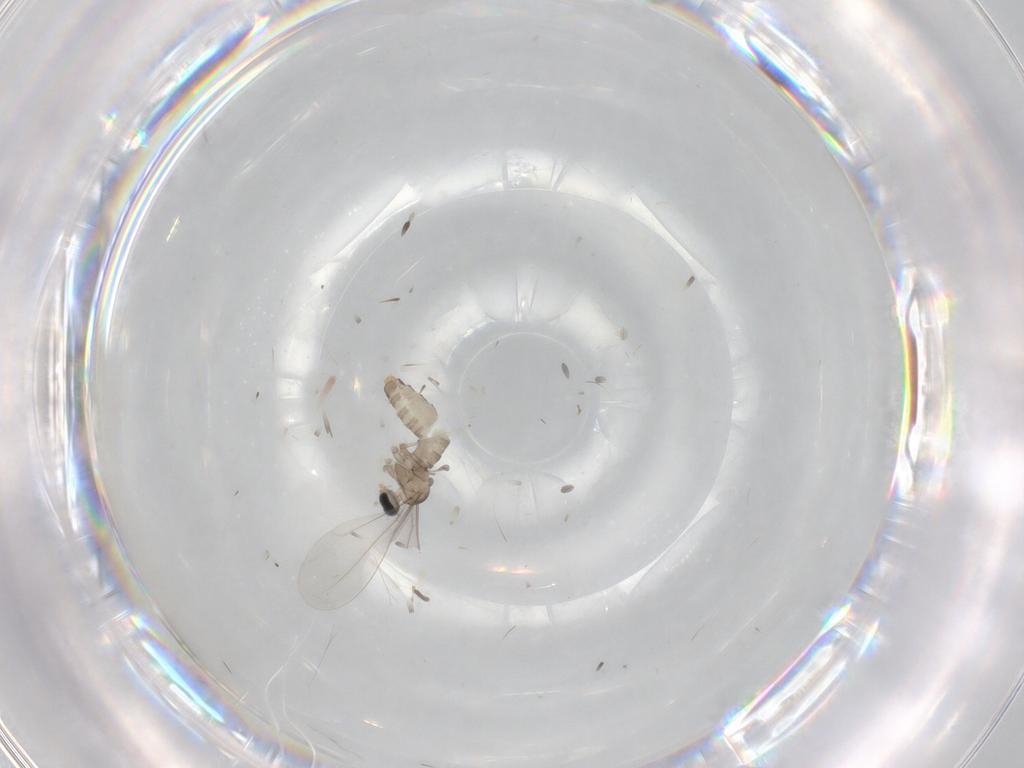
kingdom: Animalia
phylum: Arthropoda
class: Insecta
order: Diptera
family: Cecidomyiidae
